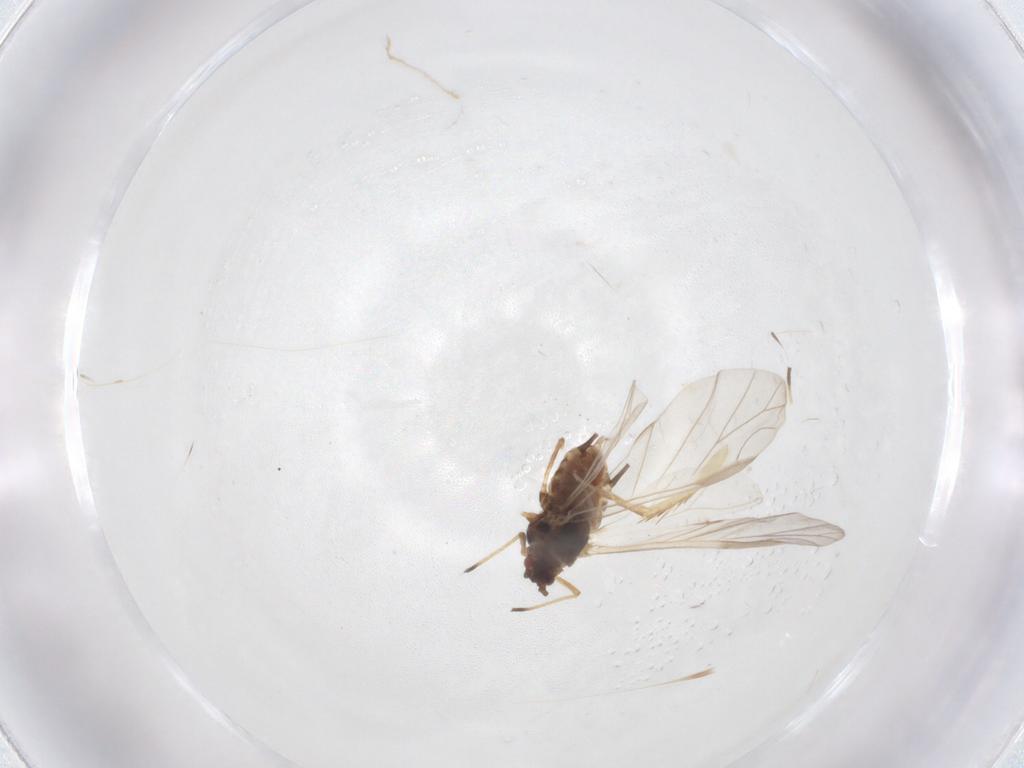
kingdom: Animalia
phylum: Arthropoda
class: Insecta
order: Hemiptera
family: Aphididae
